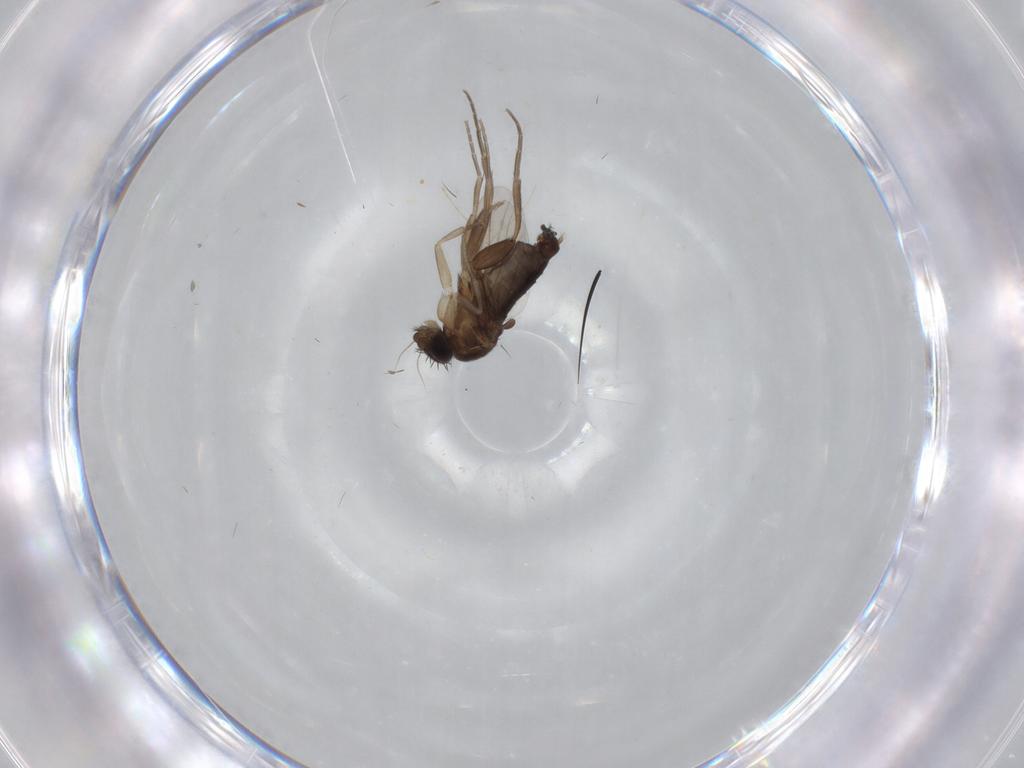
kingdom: Animalia
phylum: Arthropoda
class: Insecta
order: Diptera
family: Phoridae
